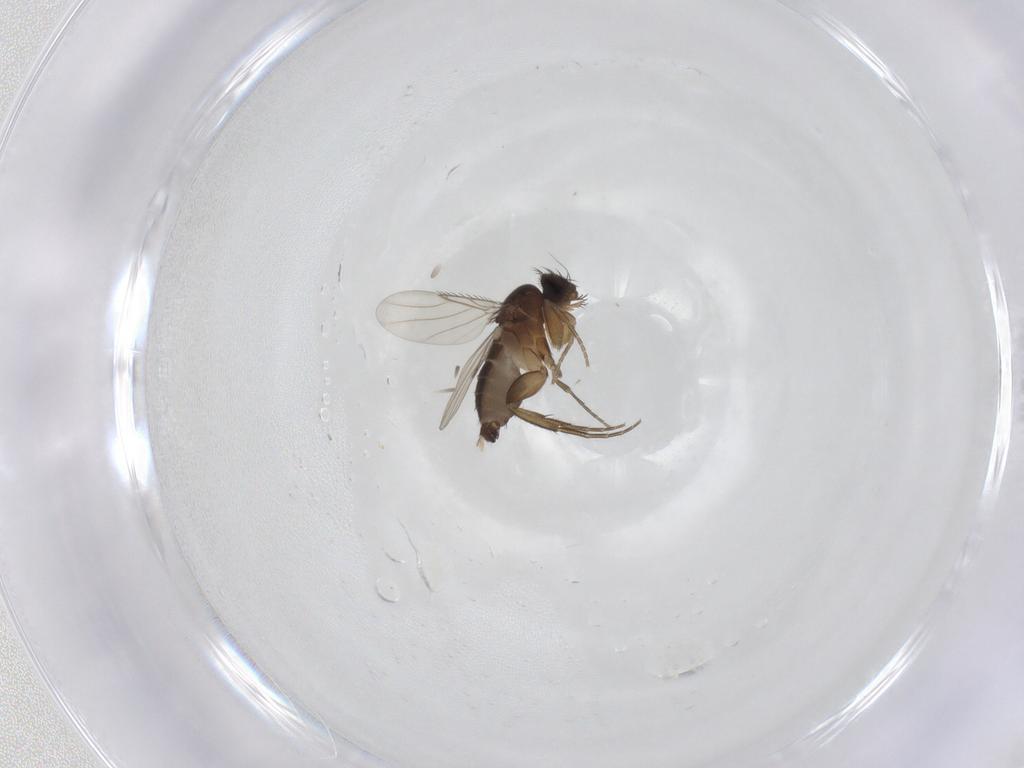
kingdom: Animalia
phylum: Arthropoda
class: Insecta
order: Diptera
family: Phoridae
